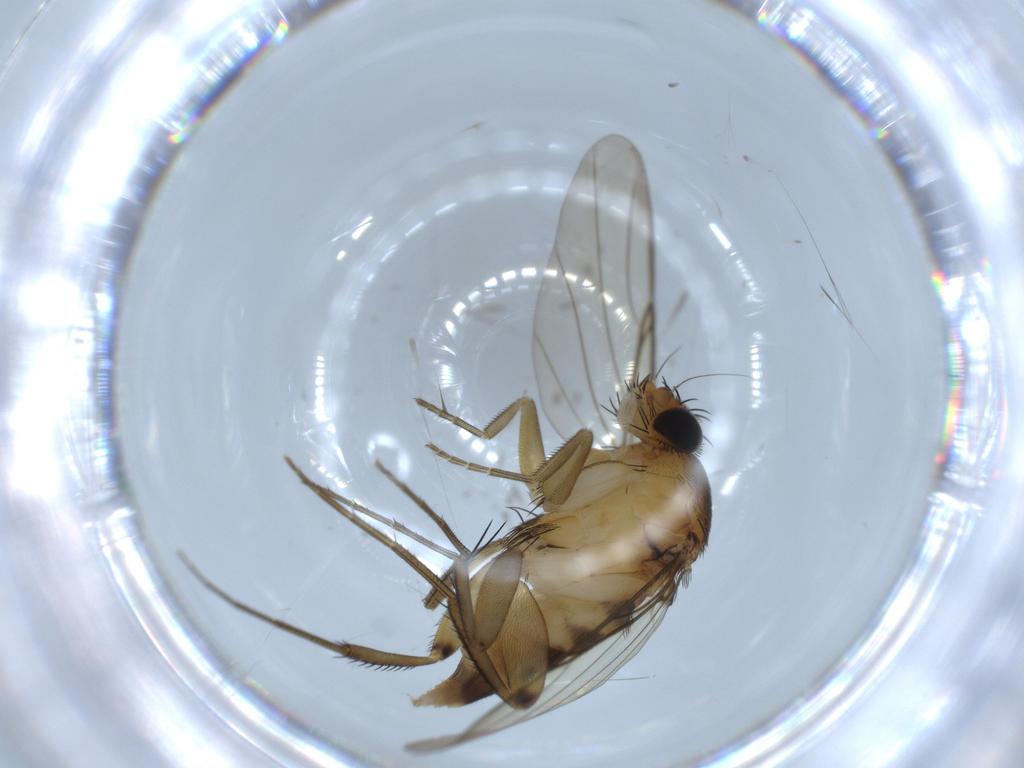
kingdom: Animalia
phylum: Arthropoda
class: Insecta
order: Diptera
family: Phoridae
